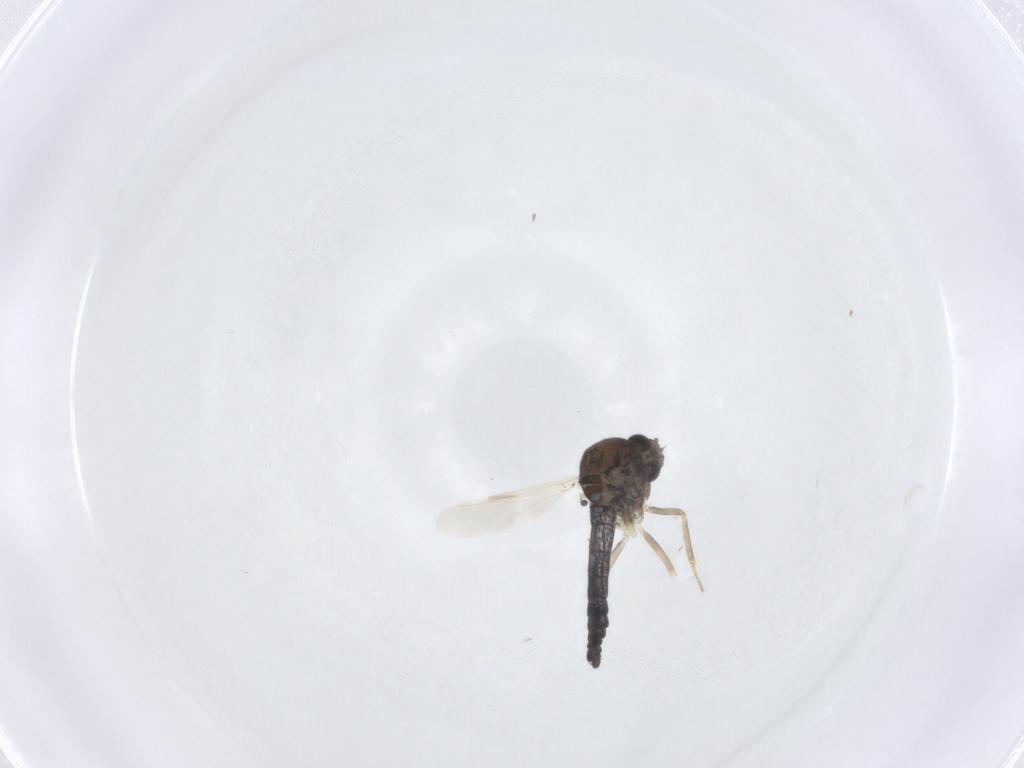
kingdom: Animalia
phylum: Arthropoda
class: Insecta
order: Diptera
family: Ceratopogonidae
